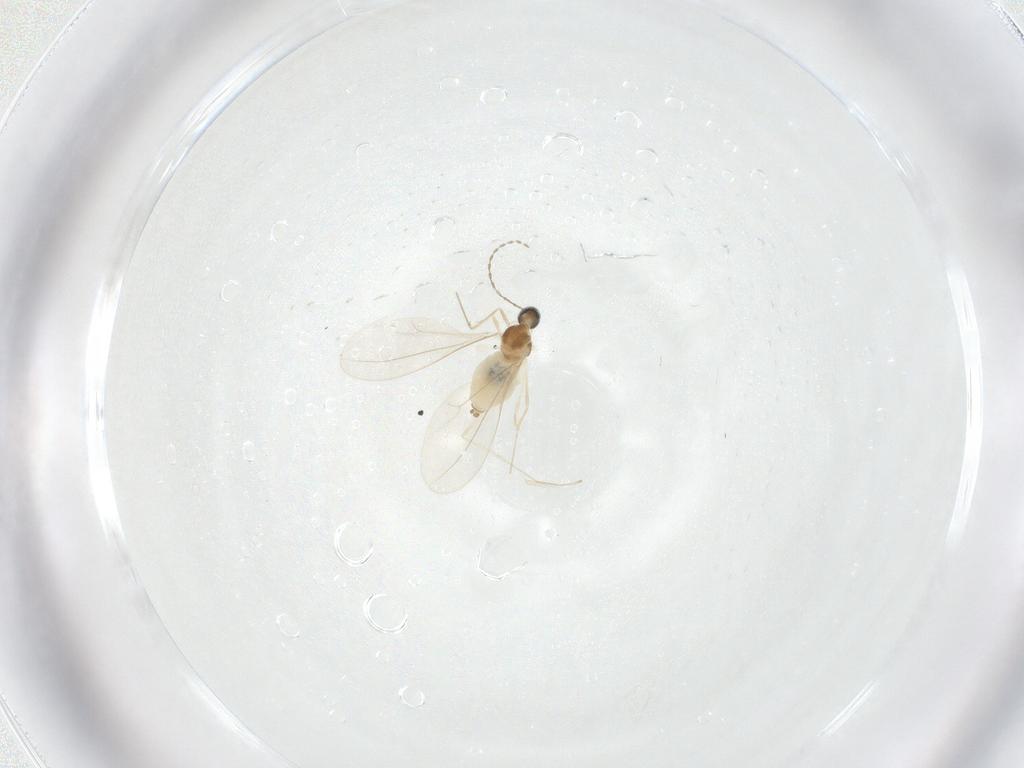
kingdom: Animalia
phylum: Arthropoda
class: Insecta
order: Diptera
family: Cecidomyiidae
